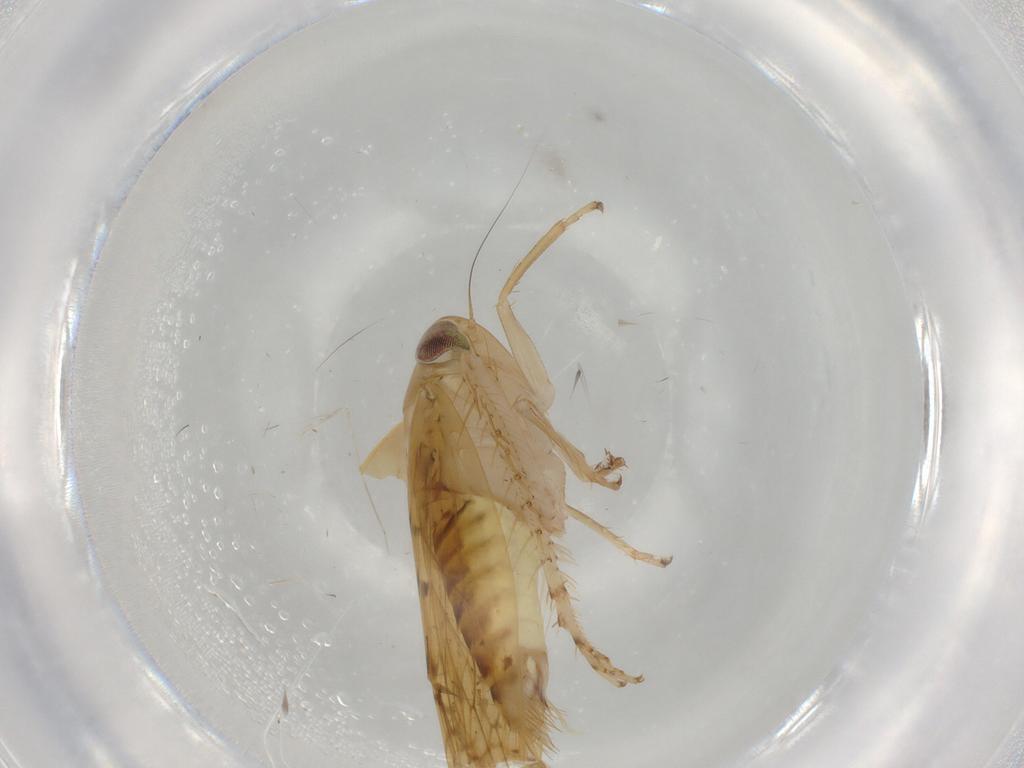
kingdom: Animalia
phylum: Arthropoda
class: Insecta
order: Hemiptera
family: Cicadellidae
